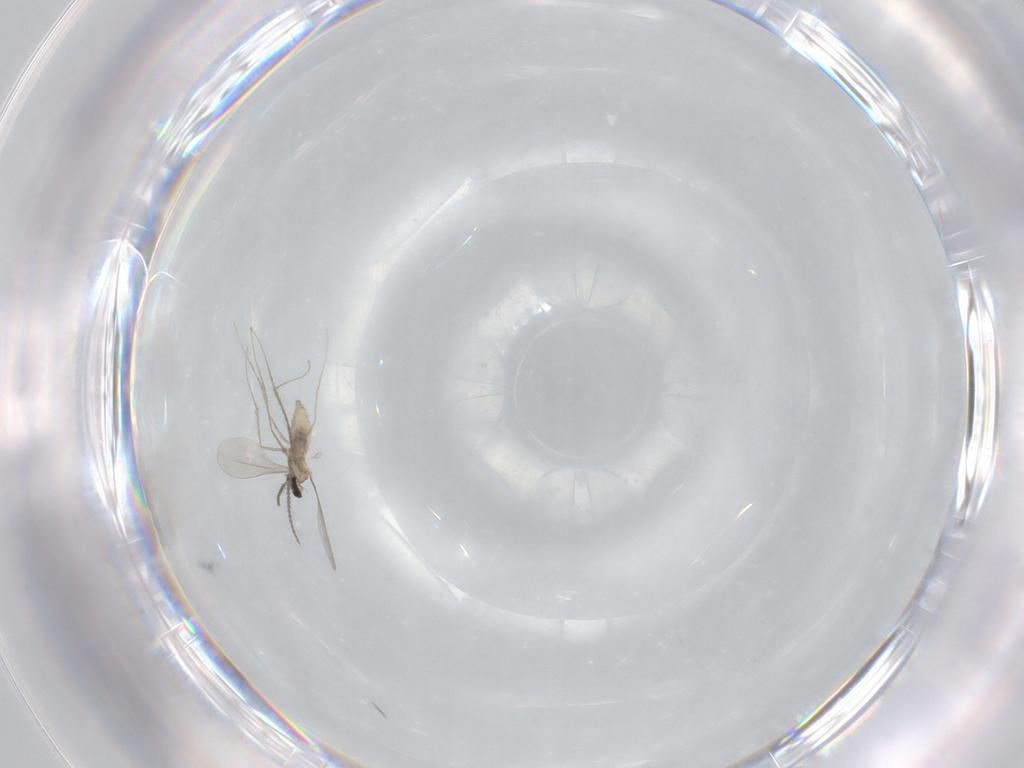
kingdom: Animalia
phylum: Arthropoda
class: Insecta
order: Diptera
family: Cecidomyiidae
